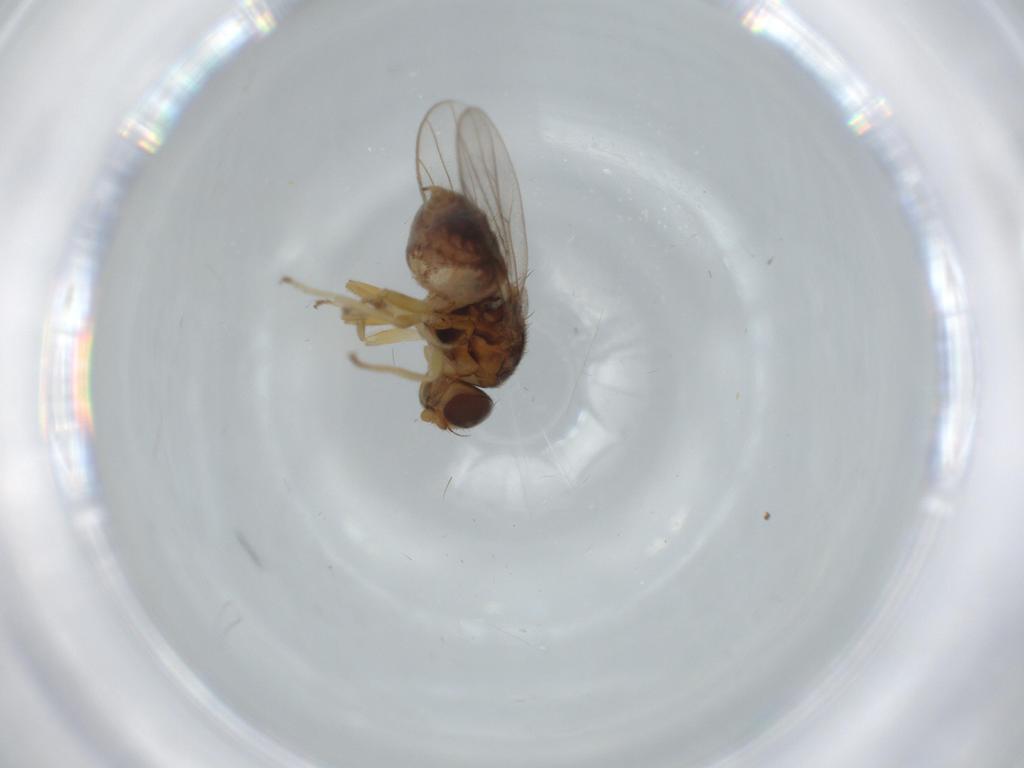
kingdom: Animalia
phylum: Arthropoda
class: Insecta
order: Diptera
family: Chloropidae
